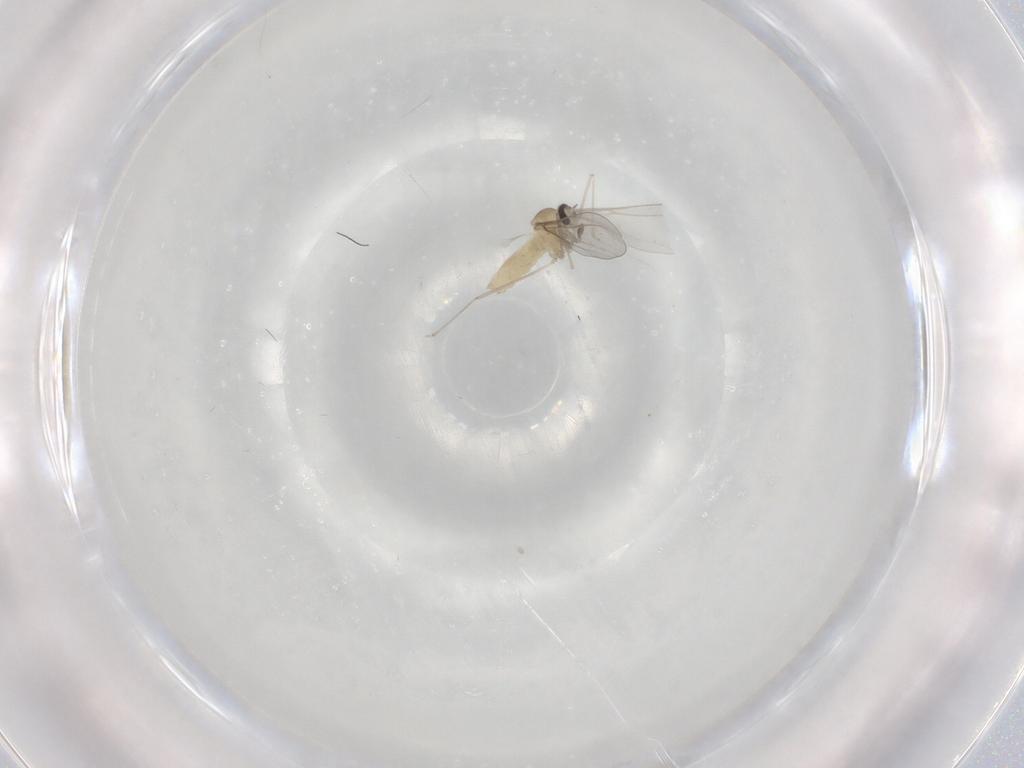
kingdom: Animalia
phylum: Arthropoda
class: Insecta
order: Diptera
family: Cecidomyiidae
